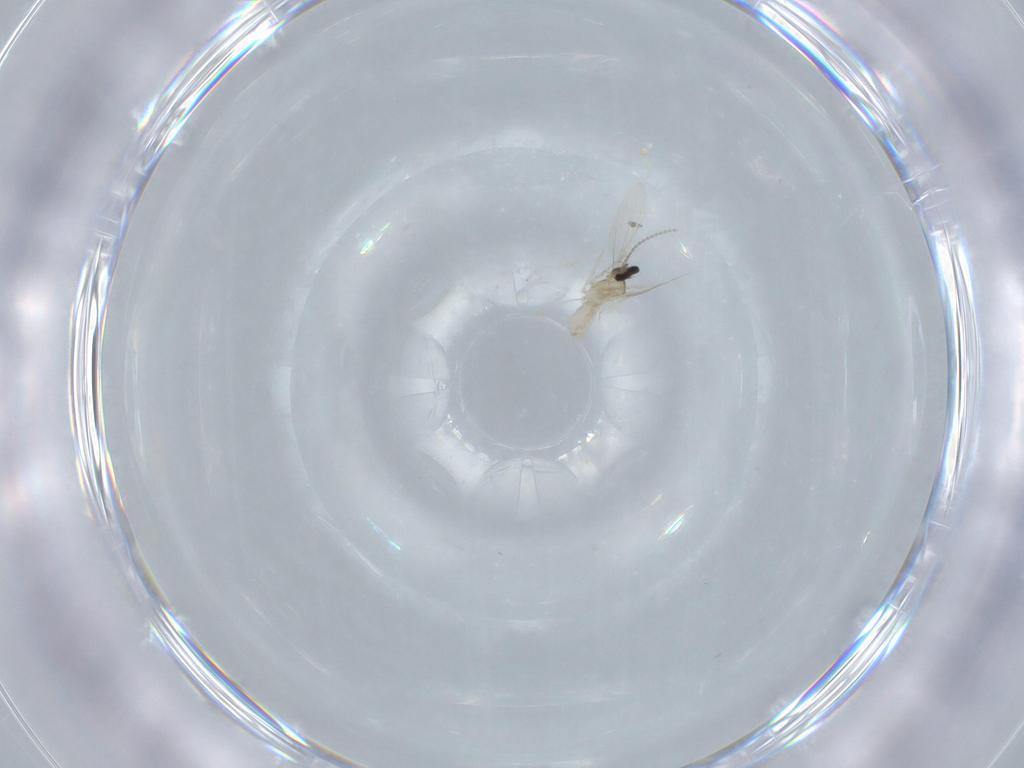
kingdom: Animalia
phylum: Arthropoda
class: Insecta
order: Diptera
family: Cecidomyiidae
